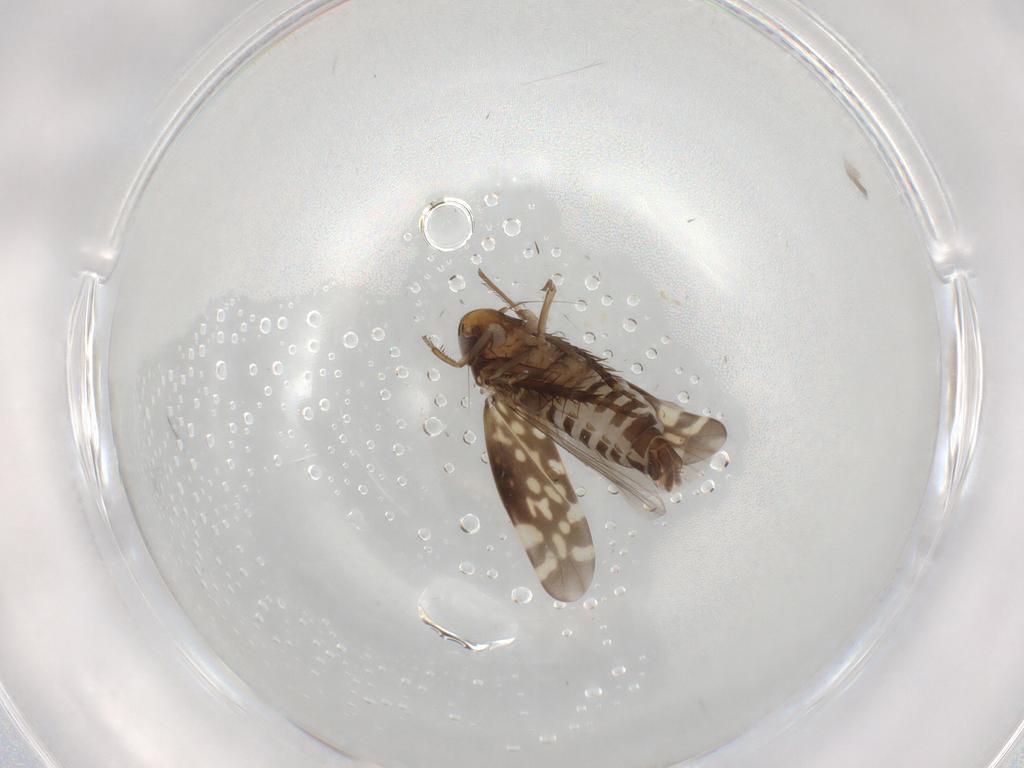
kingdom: Animalia
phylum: Arthropoda
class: Insecta
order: Hemiptera
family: Cicadellidae
